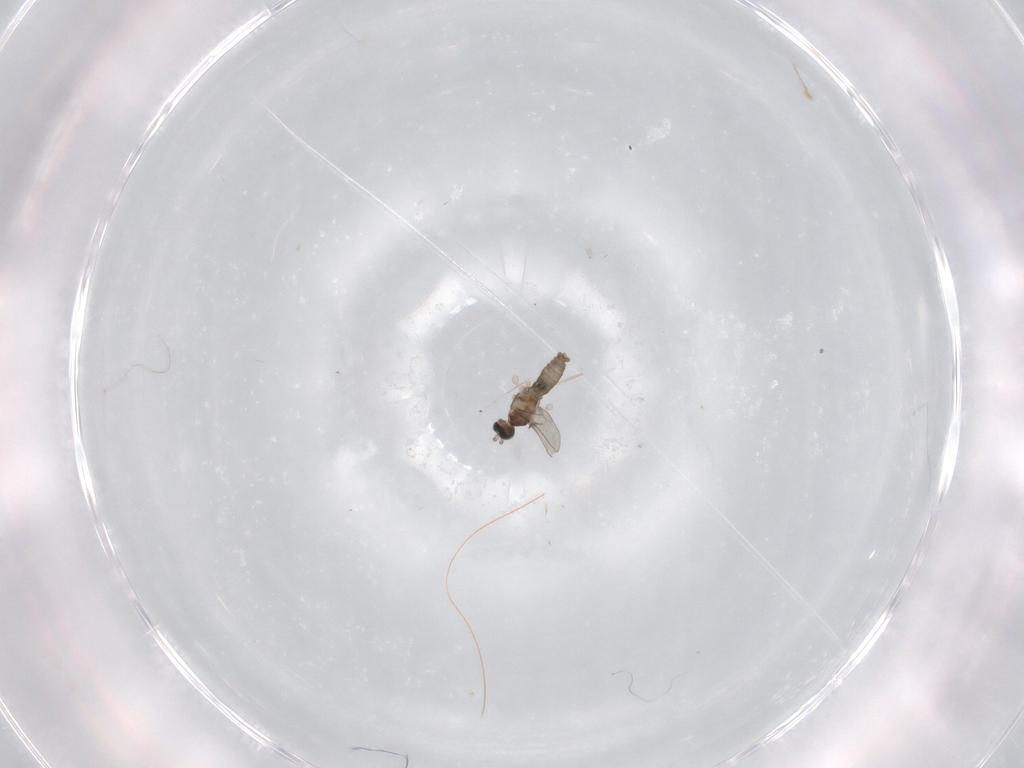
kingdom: Animalia
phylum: Arthropoda
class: Insecta
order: Diptera
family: Cecidomyiidae
